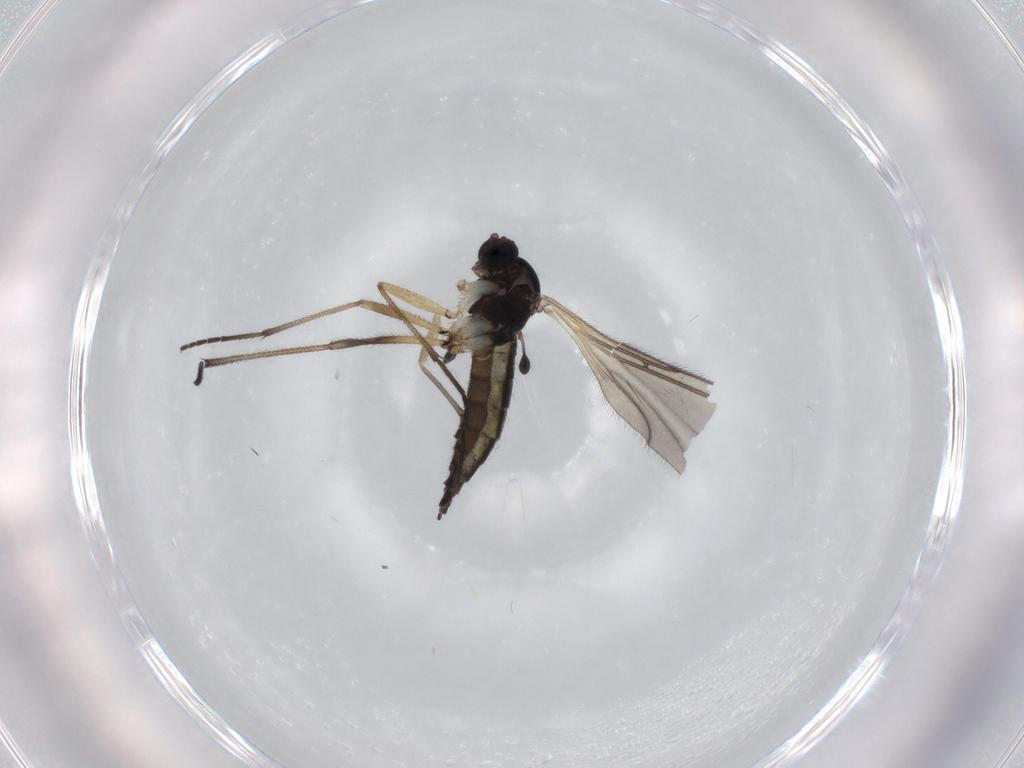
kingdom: Animalia
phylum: Arthropoda
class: Insecta
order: Diptera
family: Sciaridae
